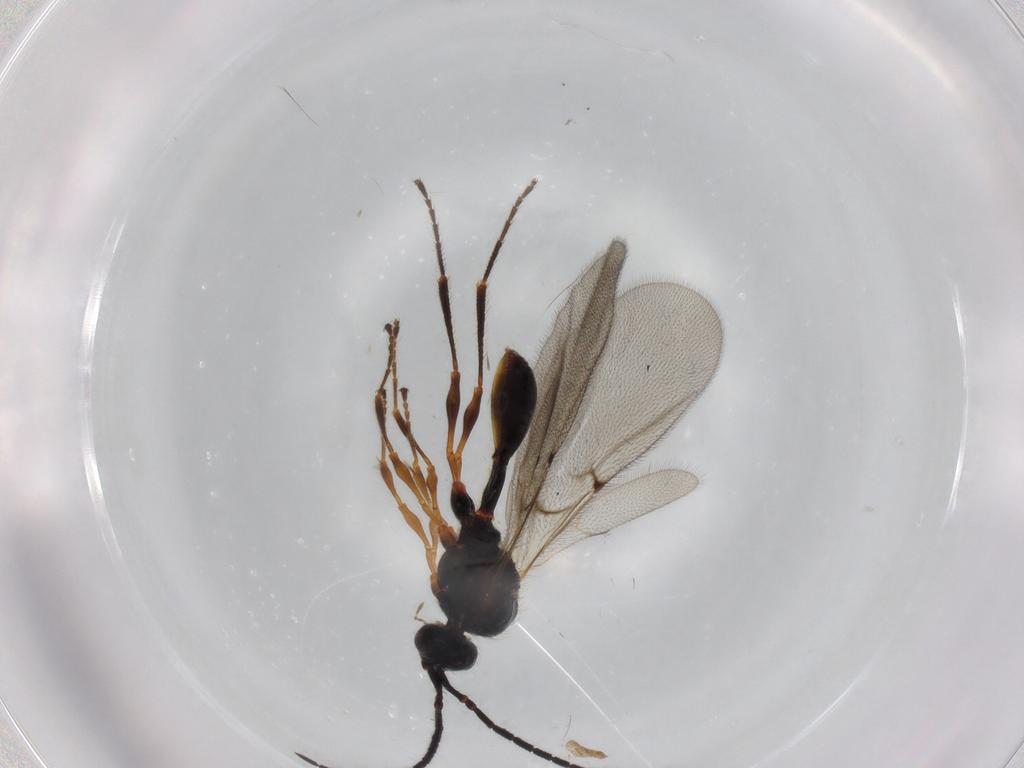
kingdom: Animalia
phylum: Arthropoda
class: Insecta
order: Hymenoptera
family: Diapriidae
